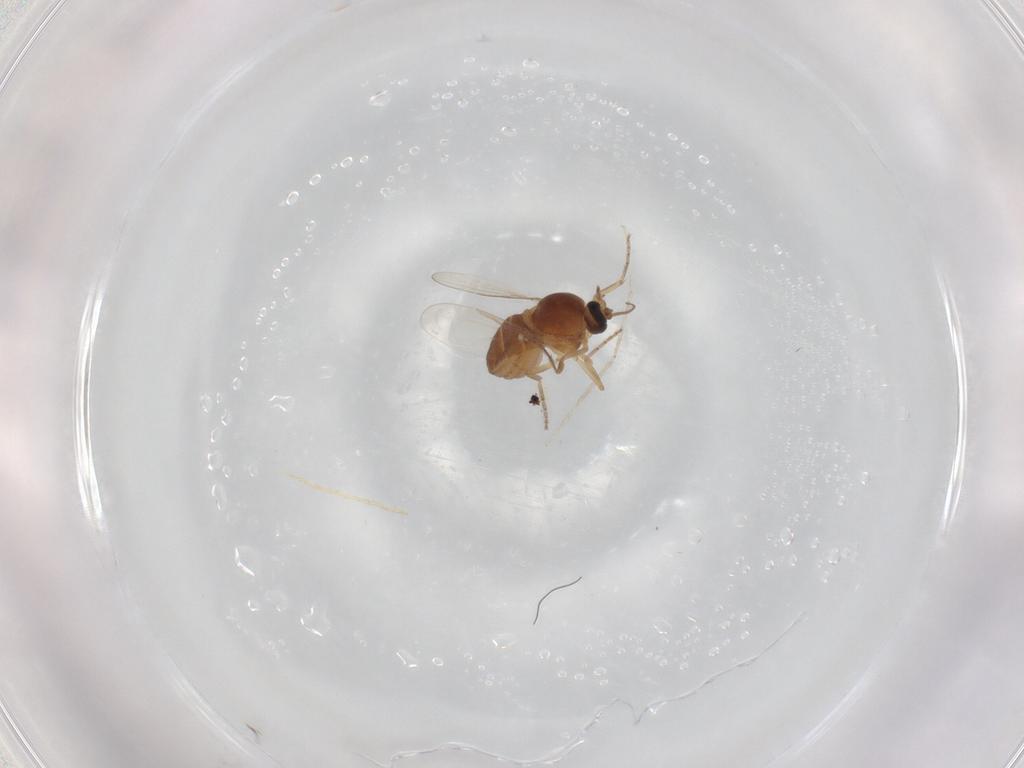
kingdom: Animalia
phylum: Arthropoda
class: Insecta
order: Diptera
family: Ceratopogonidae
